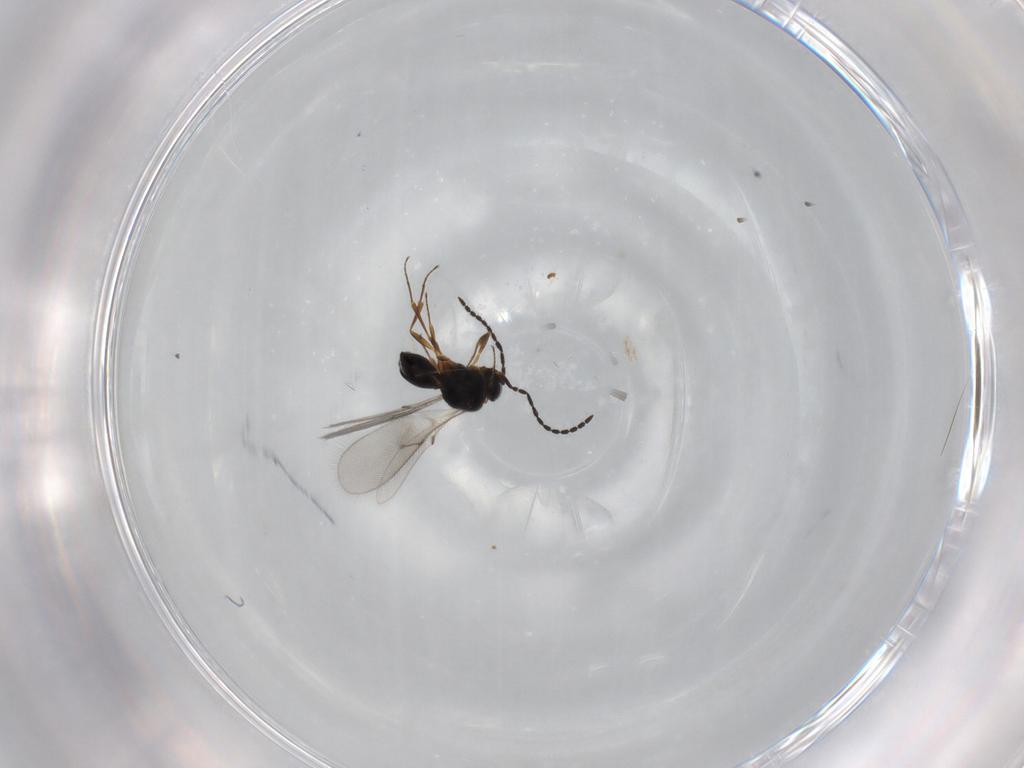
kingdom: Animalia
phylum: Arthropoda
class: Insecta
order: Hymenoptera
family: Scelionidae
